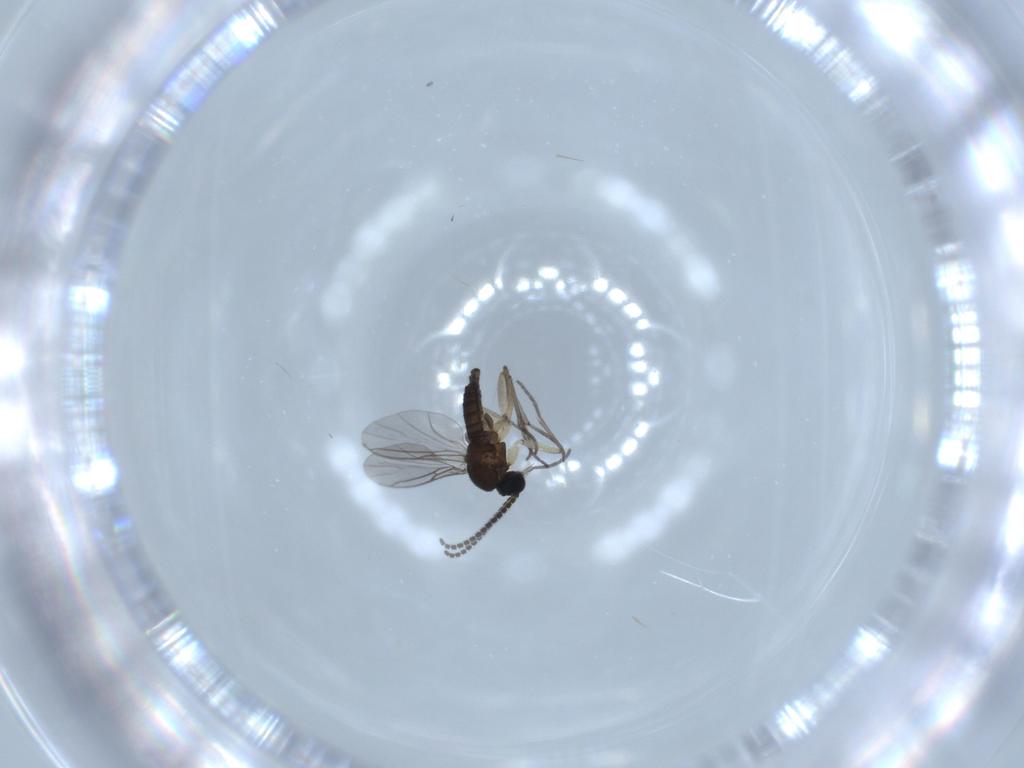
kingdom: Animalia
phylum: Arthropoda
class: Insecta
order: Diptera
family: Sciaridae
